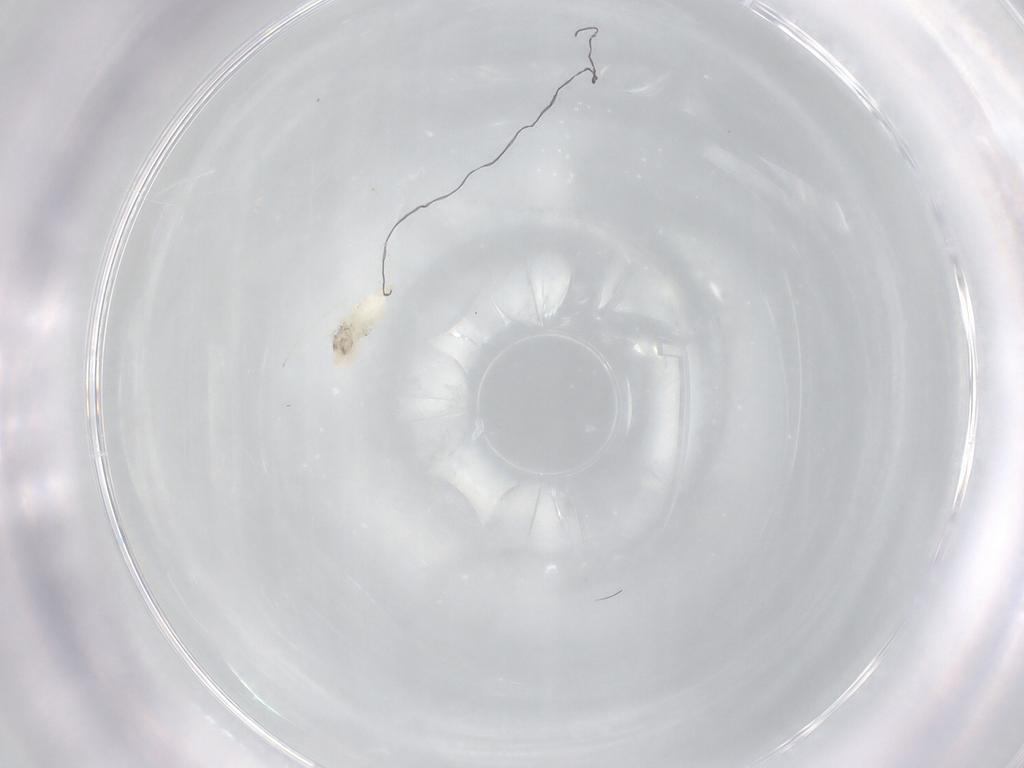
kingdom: Animalia
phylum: Arthropoda
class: Insecta
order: Diptera
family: Cecidomyiidae
